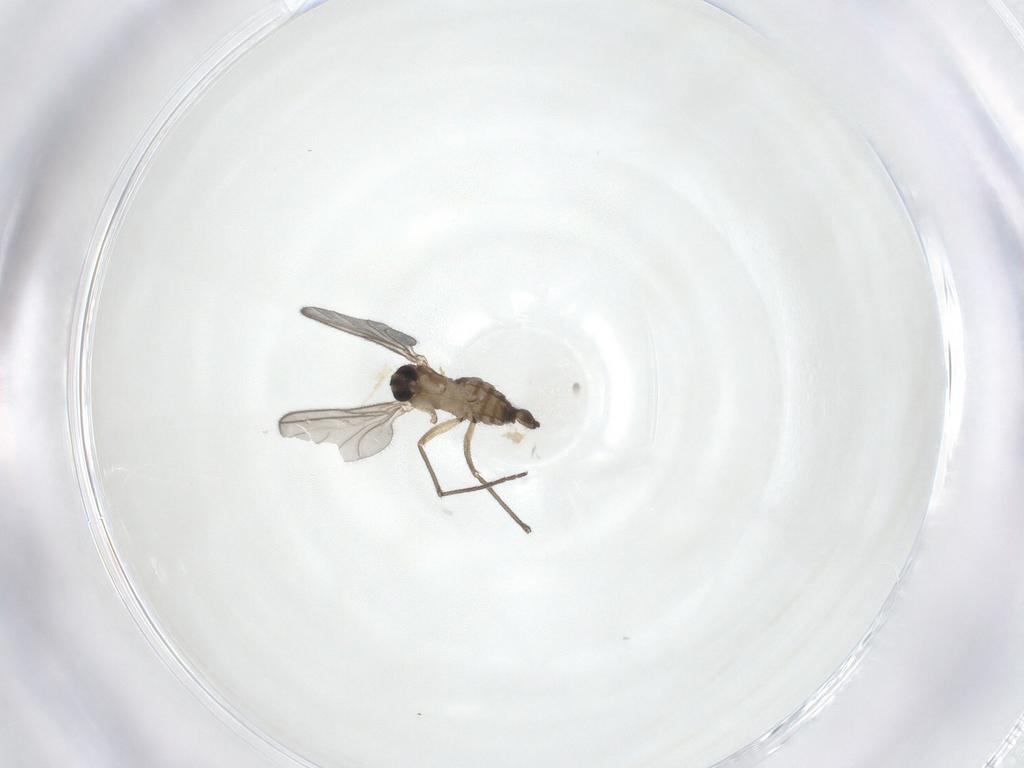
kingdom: Animalia
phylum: Arthropoda
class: Insecta
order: Diptera
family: Sciaridae
